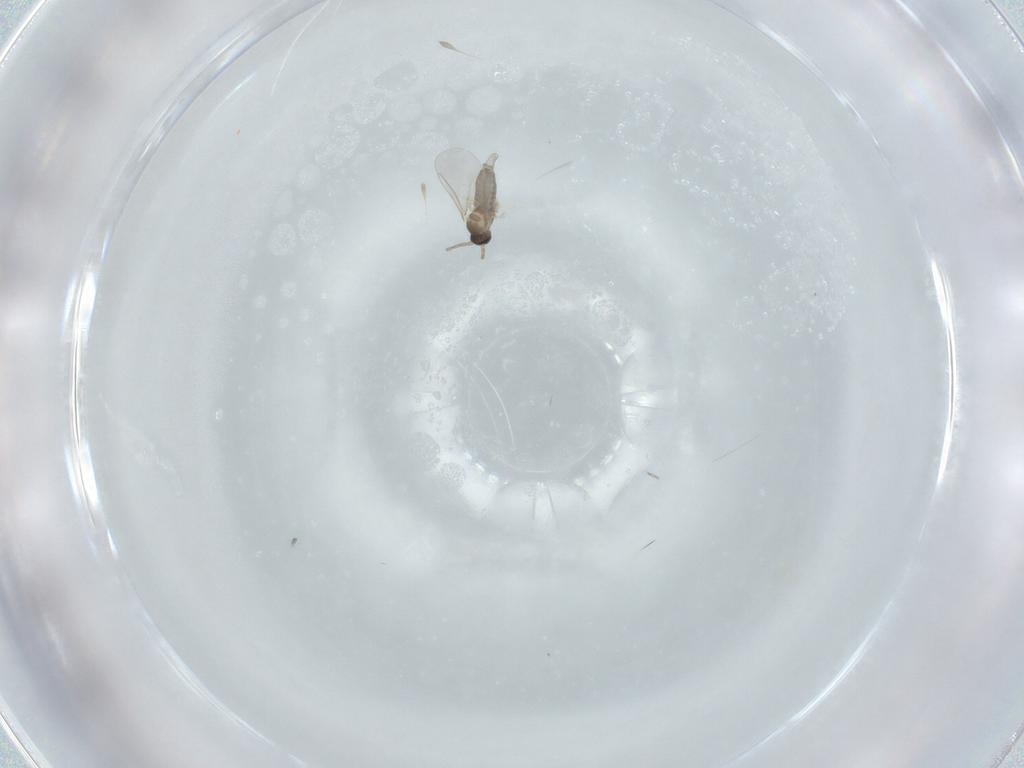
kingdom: Animalia
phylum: Arthropoda
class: Insecta
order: Diptera
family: Cecidomyiidae
